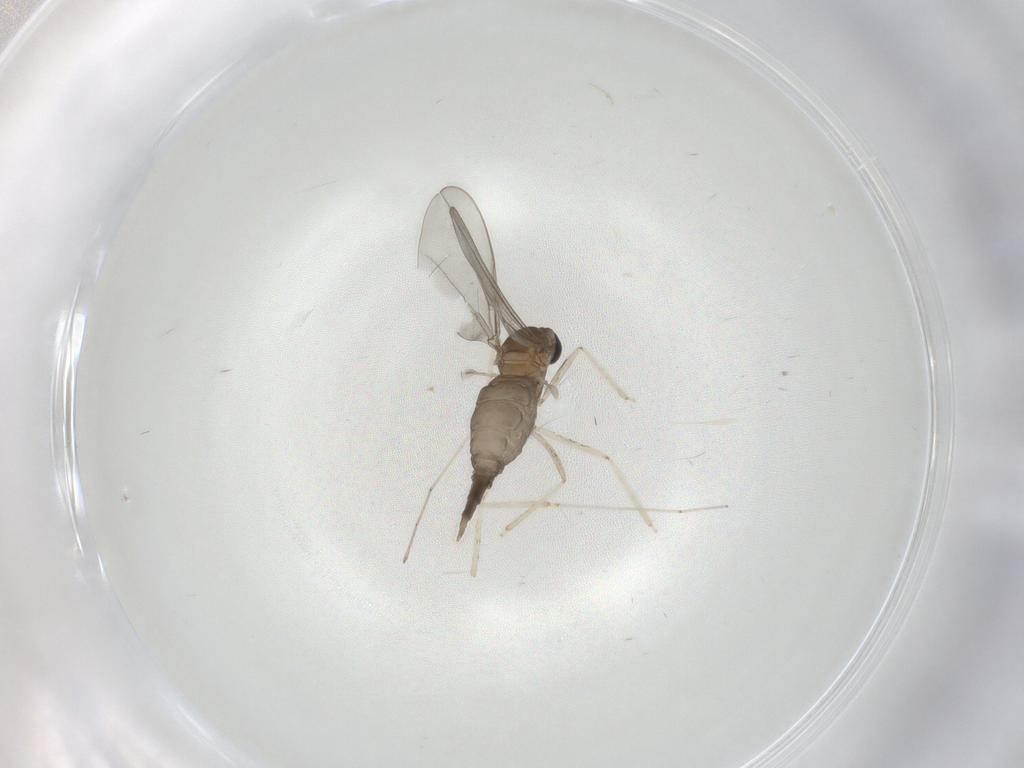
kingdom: Animalia
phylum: Arthropoda
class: Insecta
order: Diptera
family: Cecidomyiidae
